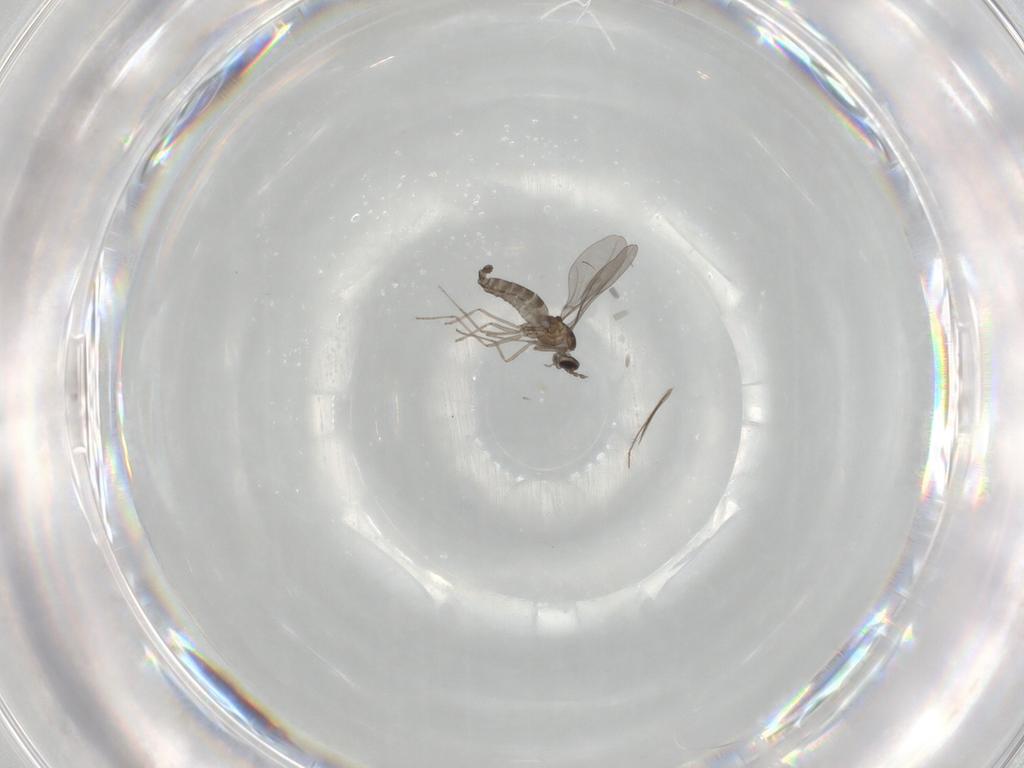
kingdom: Animalia
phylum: Arthropoda
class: Insecta
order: Diptera
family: Cecidomyiidae
